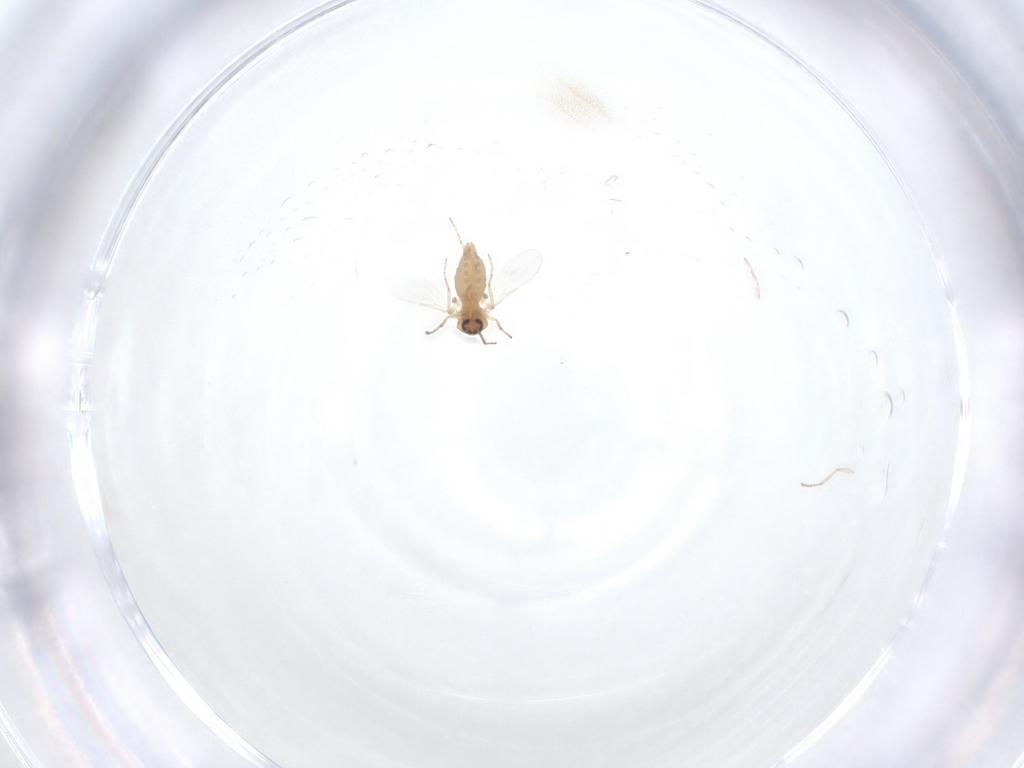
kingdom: Animalia
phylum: Arthropoda
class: Insecta
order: Diptera
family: Ceratopogonidae
